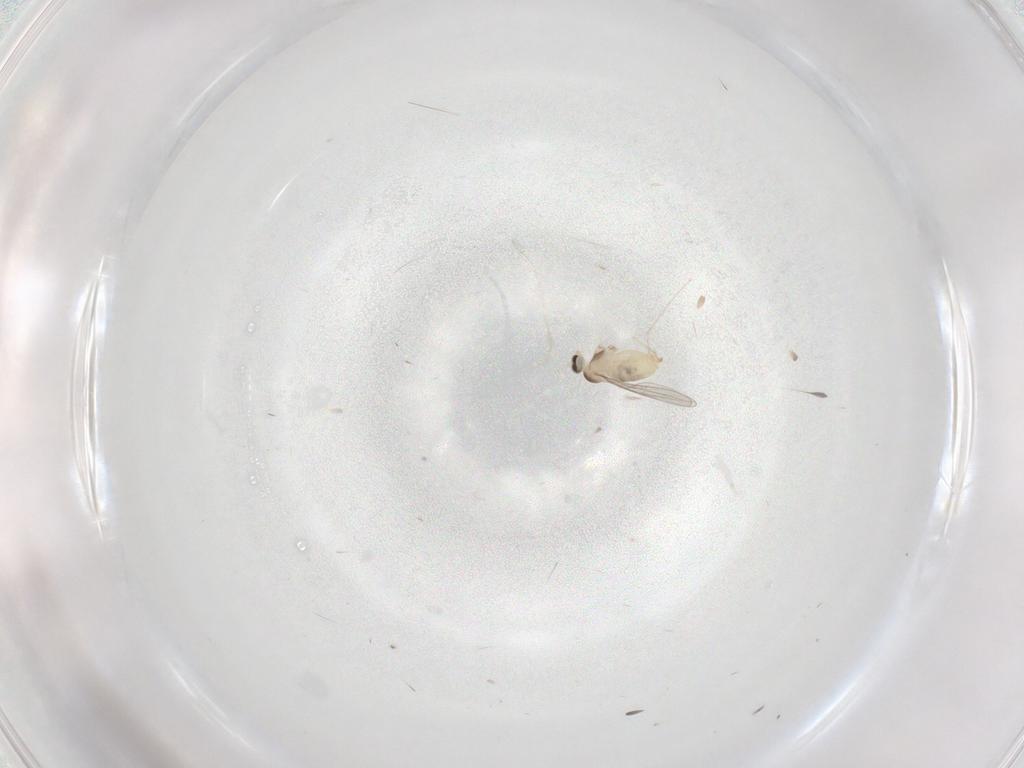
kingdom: Animalia
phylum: Arthropoda
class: Insecta
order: Diptera
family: Cecidomyiidae
